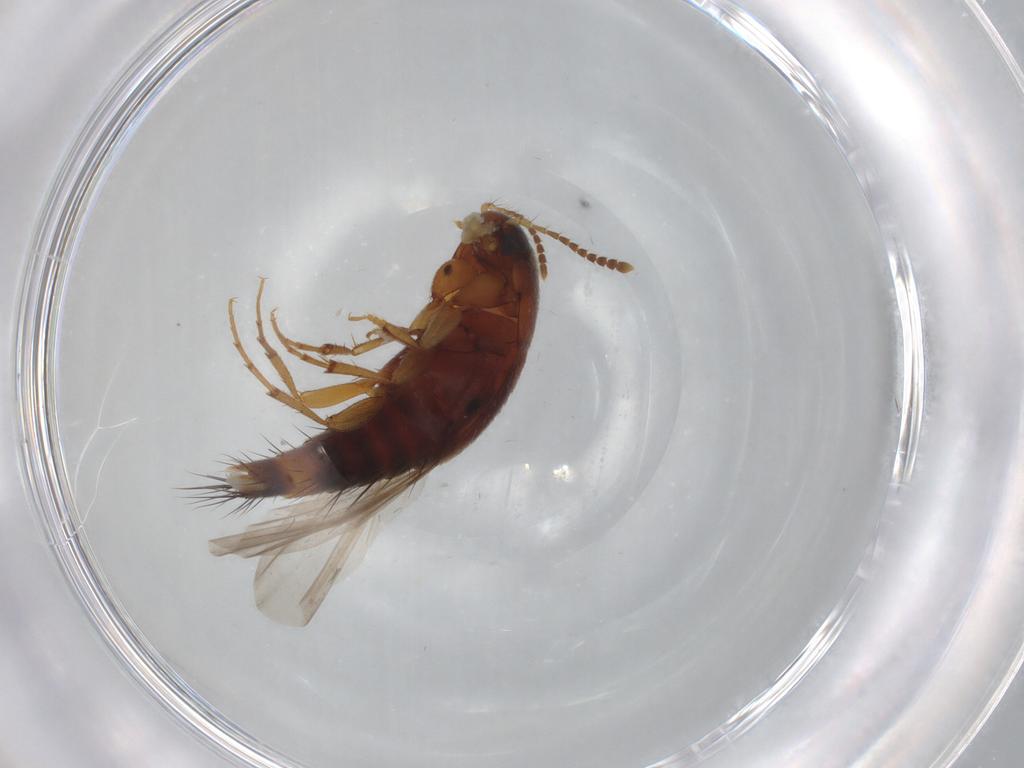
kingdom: Animalia
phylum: Arthropoda
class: Insecta
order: Coleoptera
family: Staphylinidae
